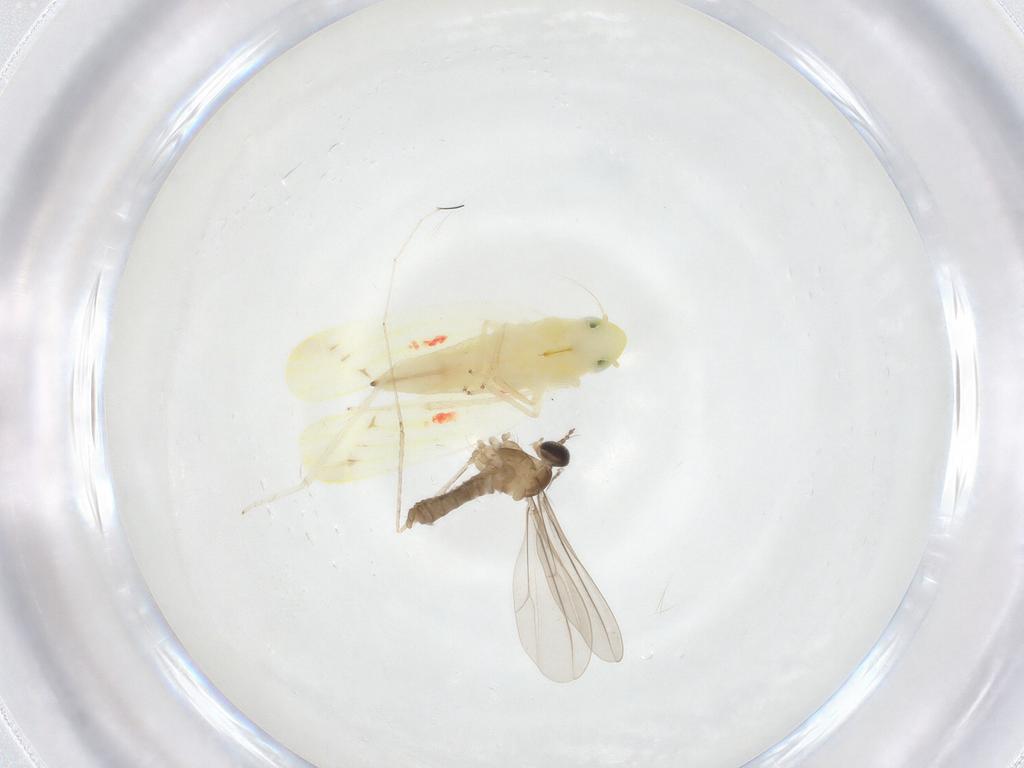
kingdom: Animalia
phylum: Arthropoda
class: Insecta
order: Hemiptera
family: Cicadellidae
